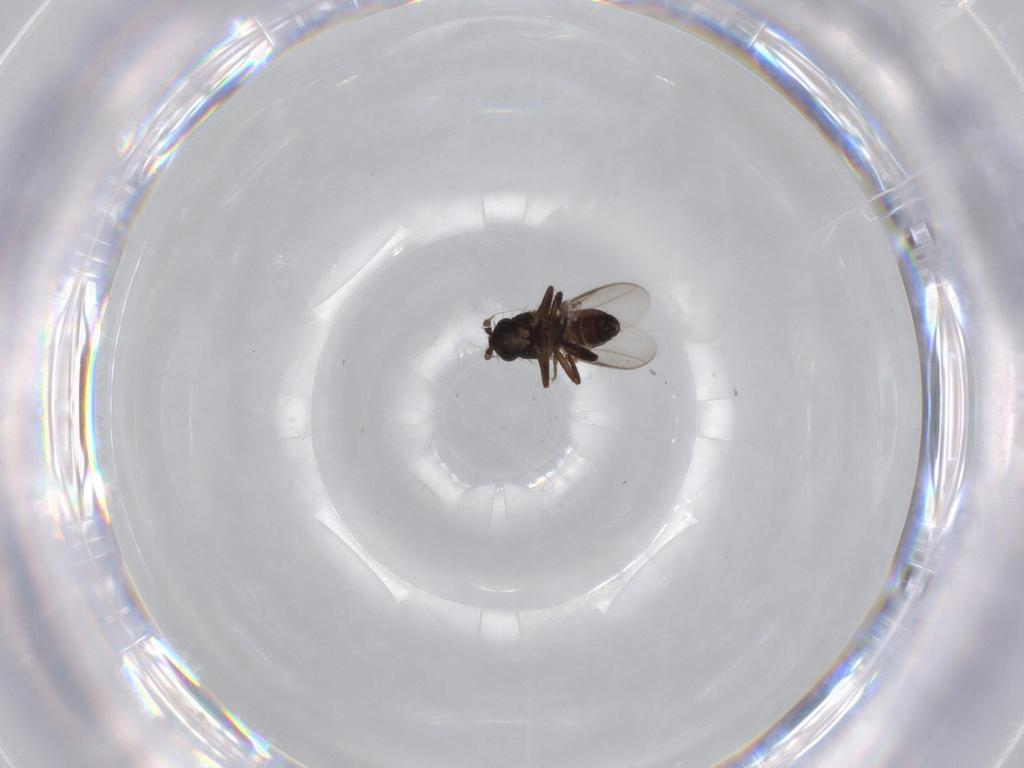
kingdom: Animalia
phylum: Arthropoda
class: Insecta
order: Diptera
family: Sphaeroceridae
